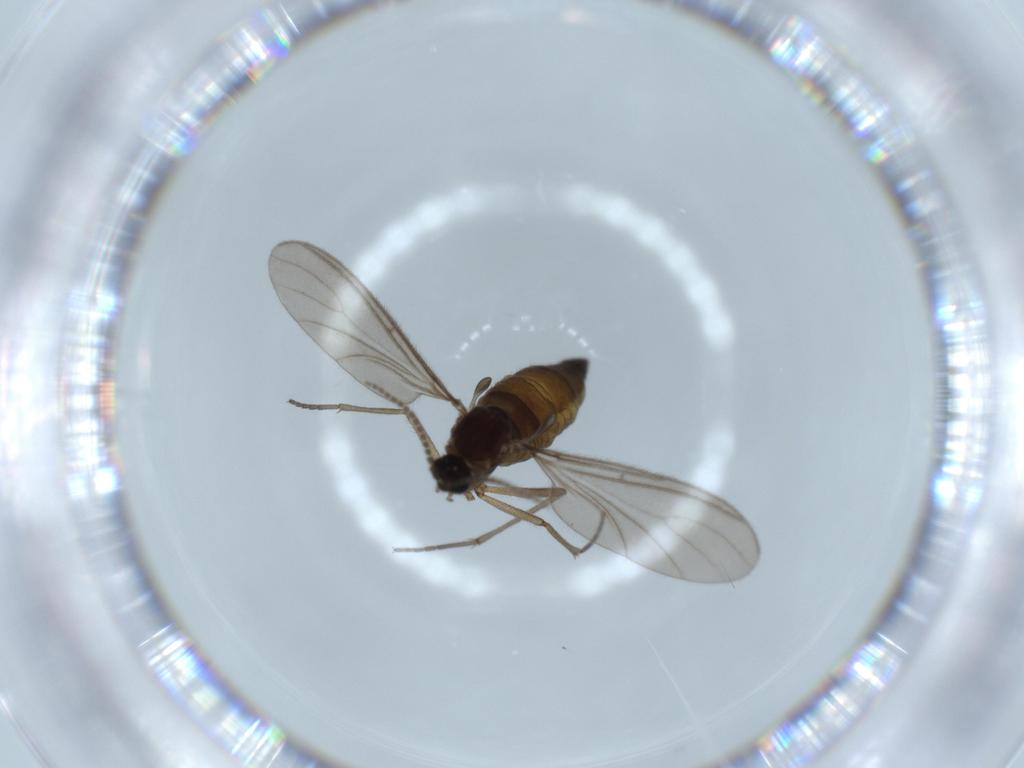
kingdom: Animalia
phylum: Arthropoda
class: Insecta
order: Diptera
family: Sciaridae
